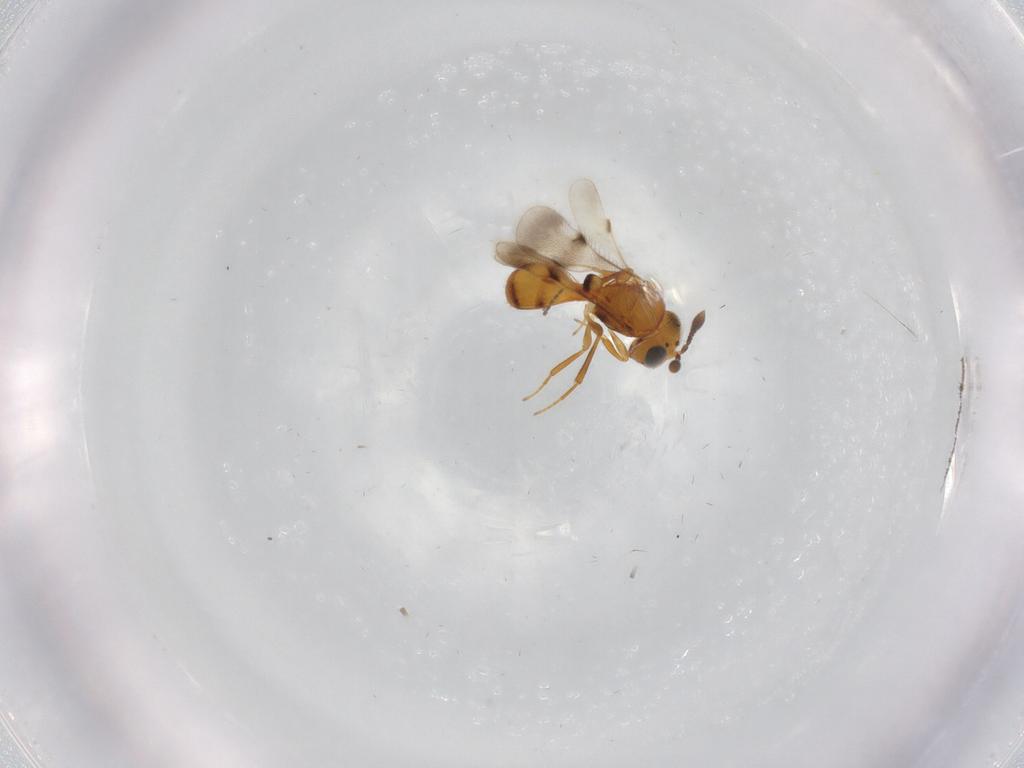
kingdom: Animalia
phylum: Arthropoda
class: Insecta
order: Hymenoptera
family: Scelionidae
